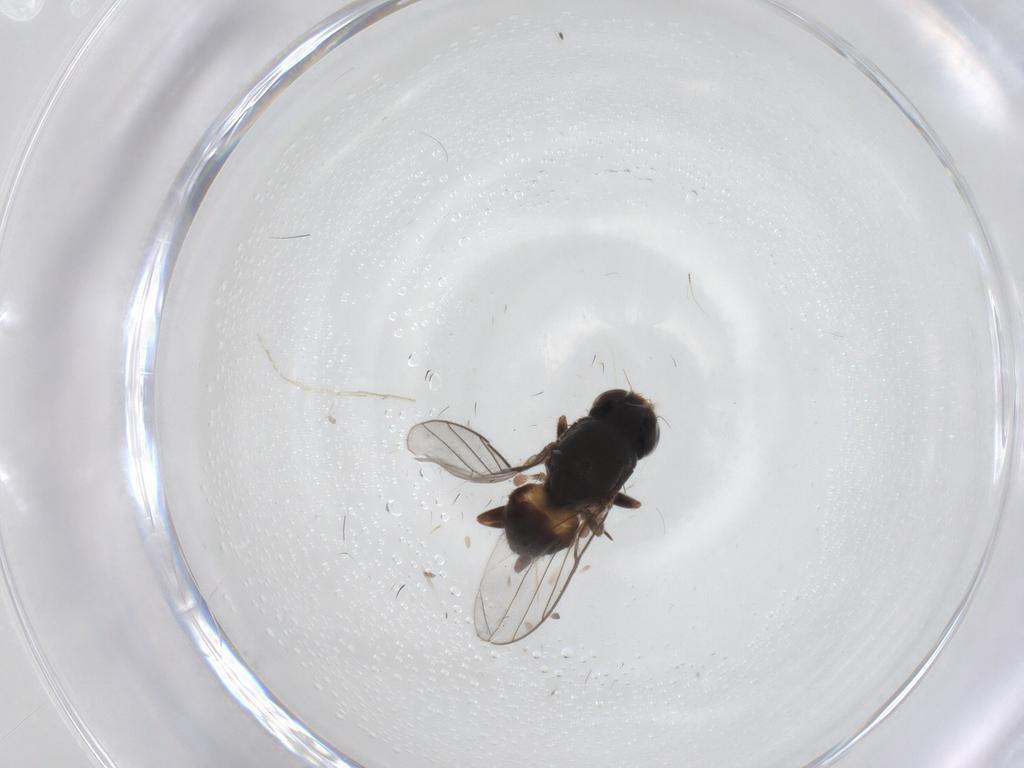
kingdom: Animalia
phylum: Arthropoda
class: Insecta
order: Diptera
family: Chloropidae
